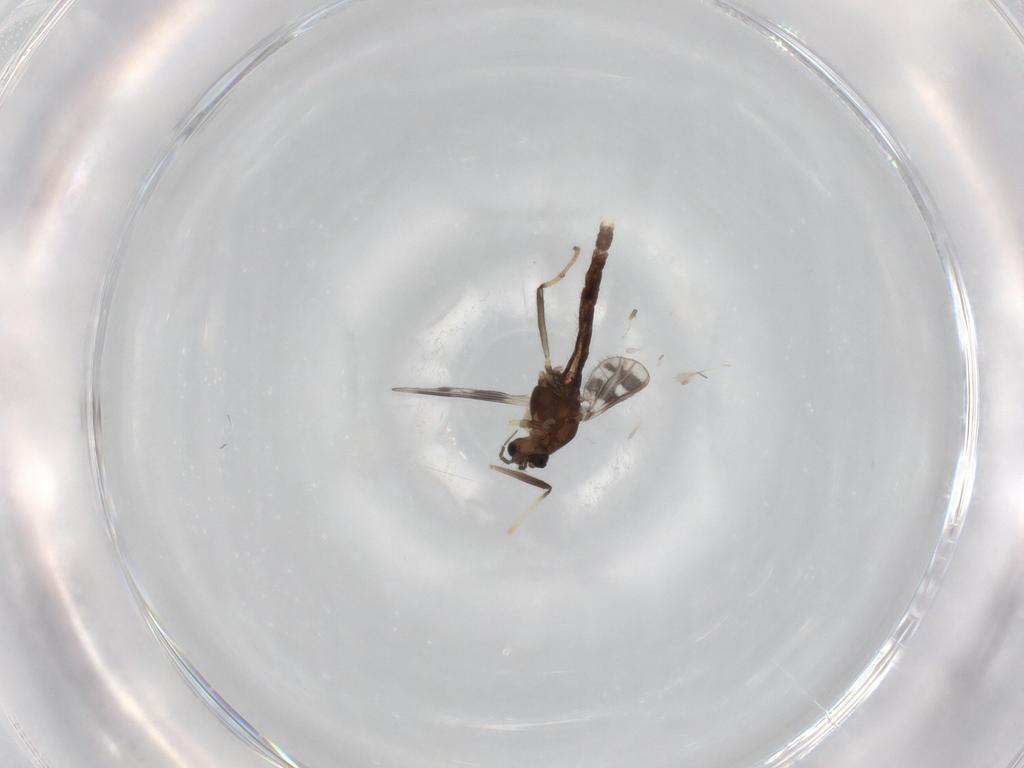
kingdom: Animalia
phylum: Arthropoda
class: Insecta
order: Diptera
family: Chironomidae
